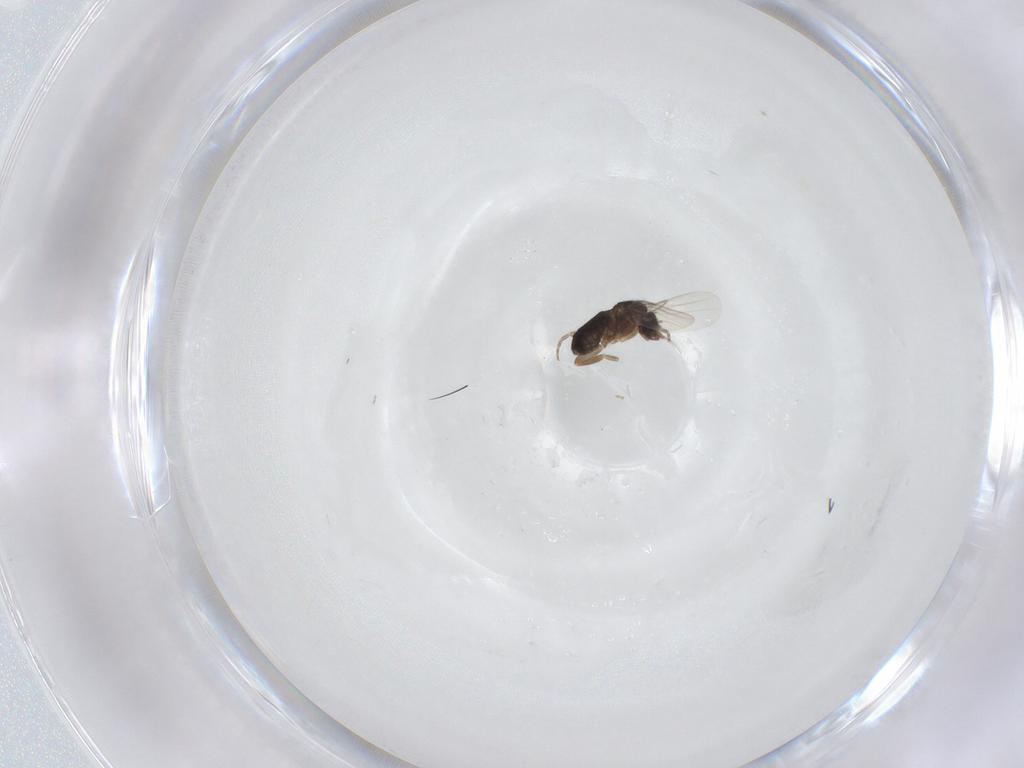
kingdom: Animalia
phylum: Arthropoda
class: Insecta
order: Diptera
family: Phoridae
